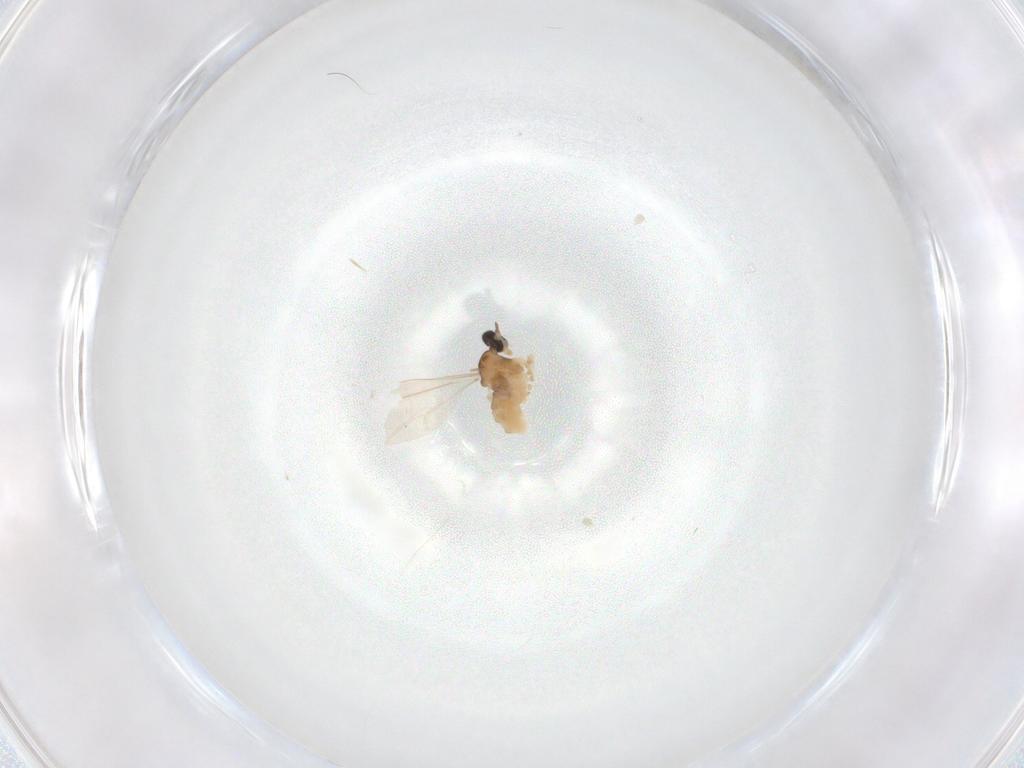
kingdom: Animalia
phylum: Arthropoda
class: Insecta
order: Diptera
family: Cecidomyiidae
